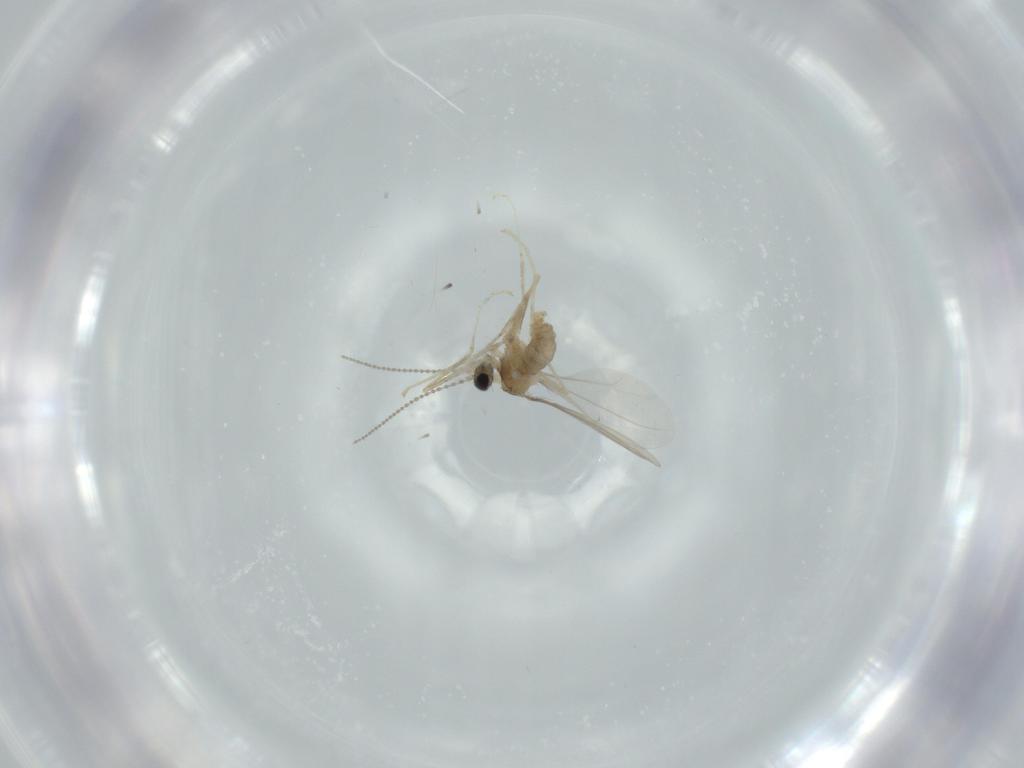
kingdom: Animalia
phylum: Arthropoda
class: Insecta
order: Diptera
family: Cecidomyiidae
